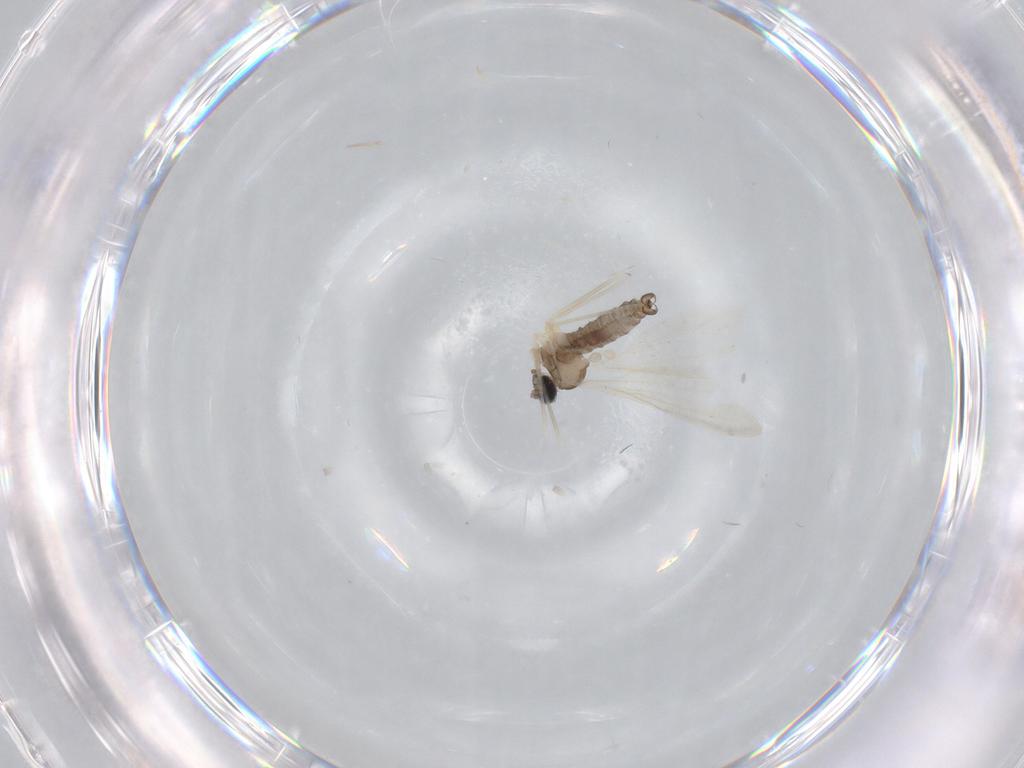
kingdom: Animalia
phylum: Arthropoda
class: Insecta
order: Diptera
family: Cecidomyiidae
